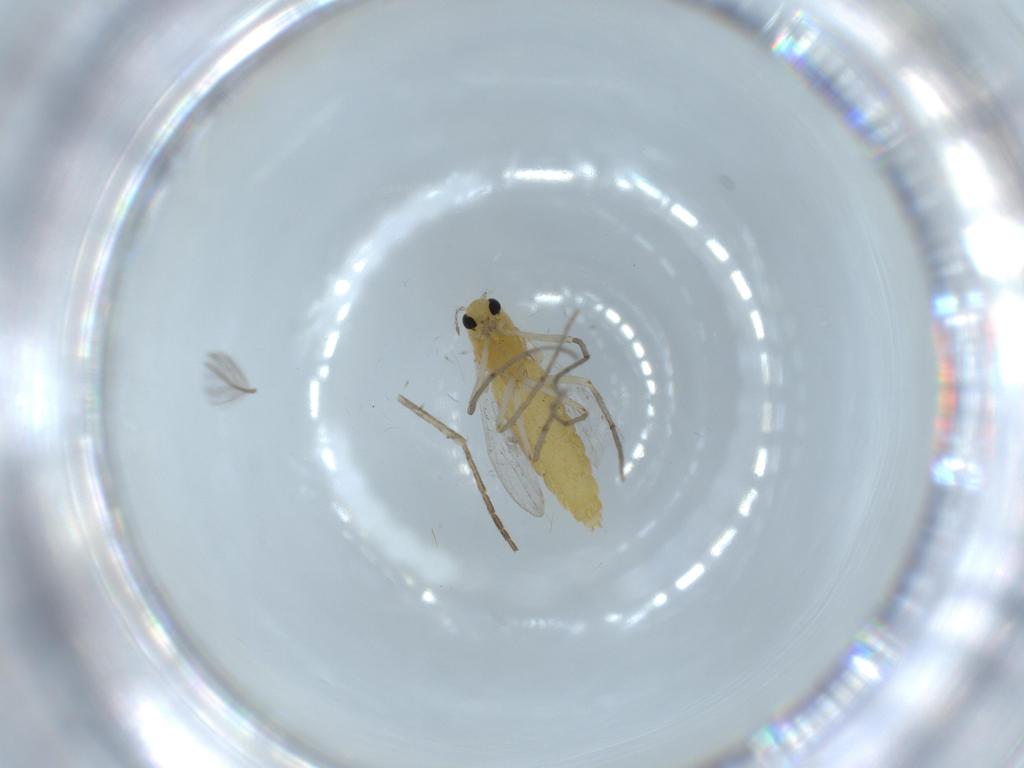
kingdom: Animalia
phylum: Arthropoda
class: Insecta
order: Diptera
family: Chironomidae
